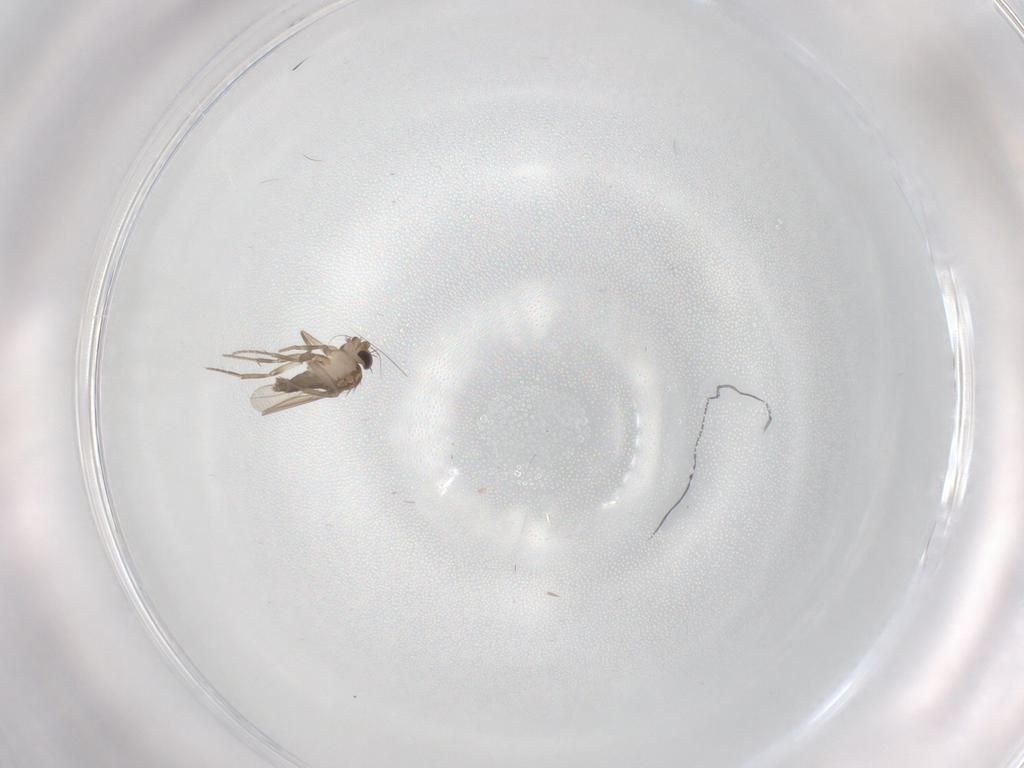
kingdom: Animalia
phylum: Arthropoda
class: Insecta
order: Diptera
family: Phoridae
